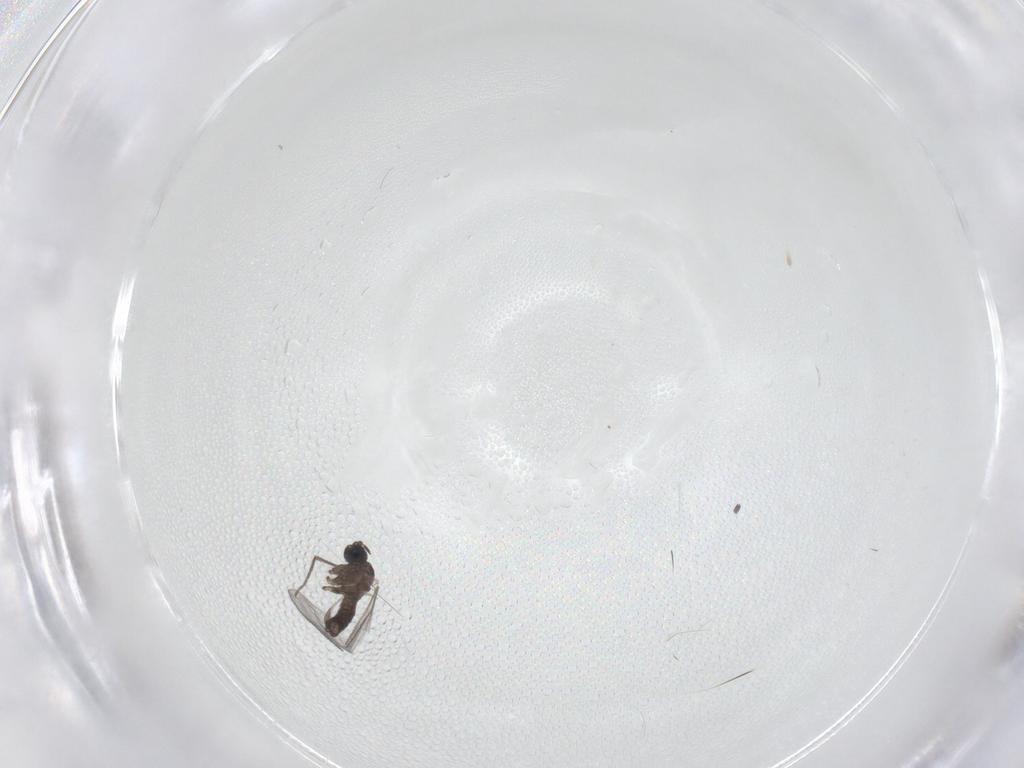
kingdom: Animalia
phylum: Arthropoda
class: Insecta
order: Diptera
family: Sciaridae
